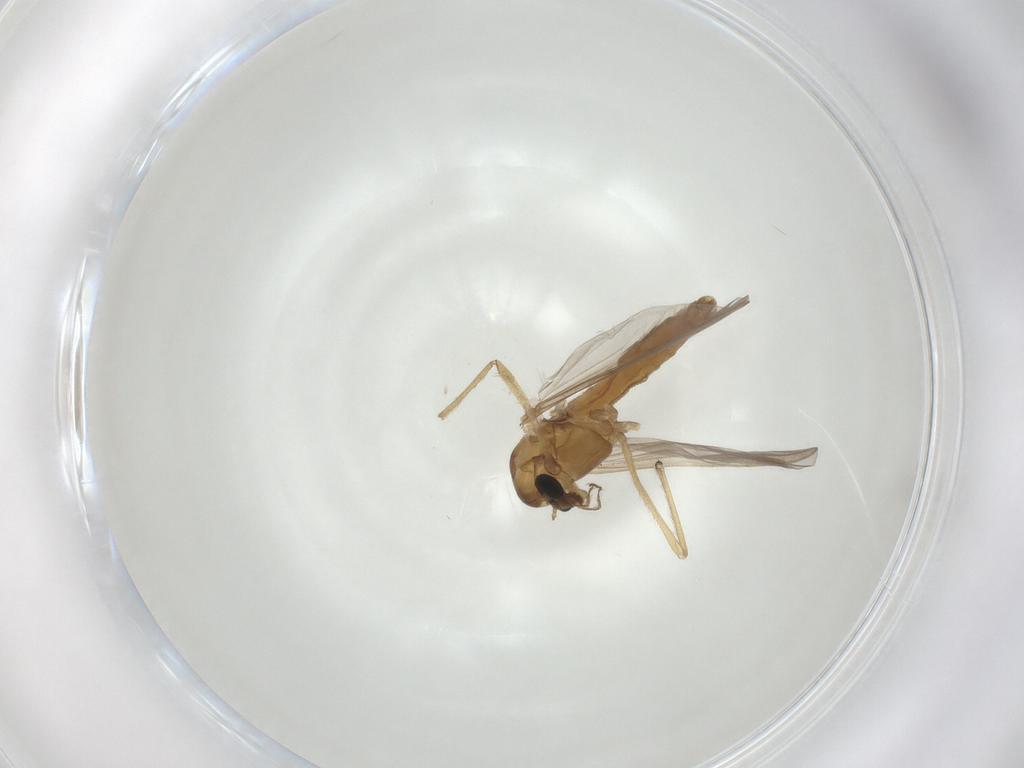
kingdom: Animalia
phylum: Arthropoda
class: Insecta
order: Diptera
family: Chironomidae
